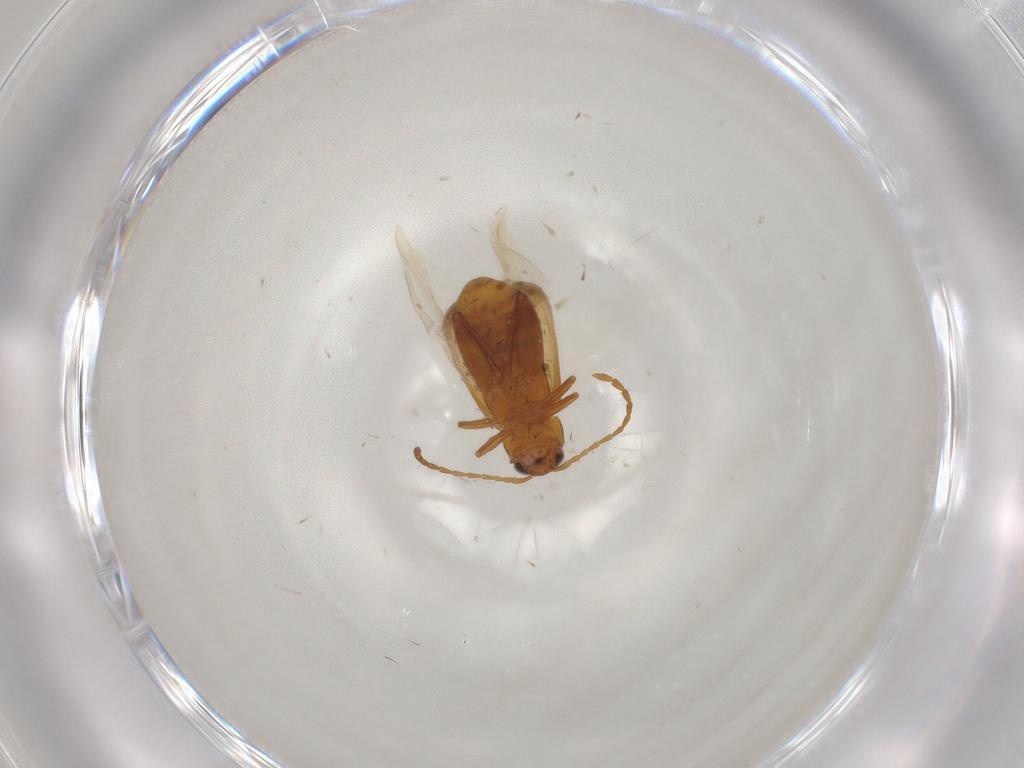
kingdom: Animalia
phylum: Arthropoda
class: Insecta
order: Coleoptera
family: Chrysomelidae
